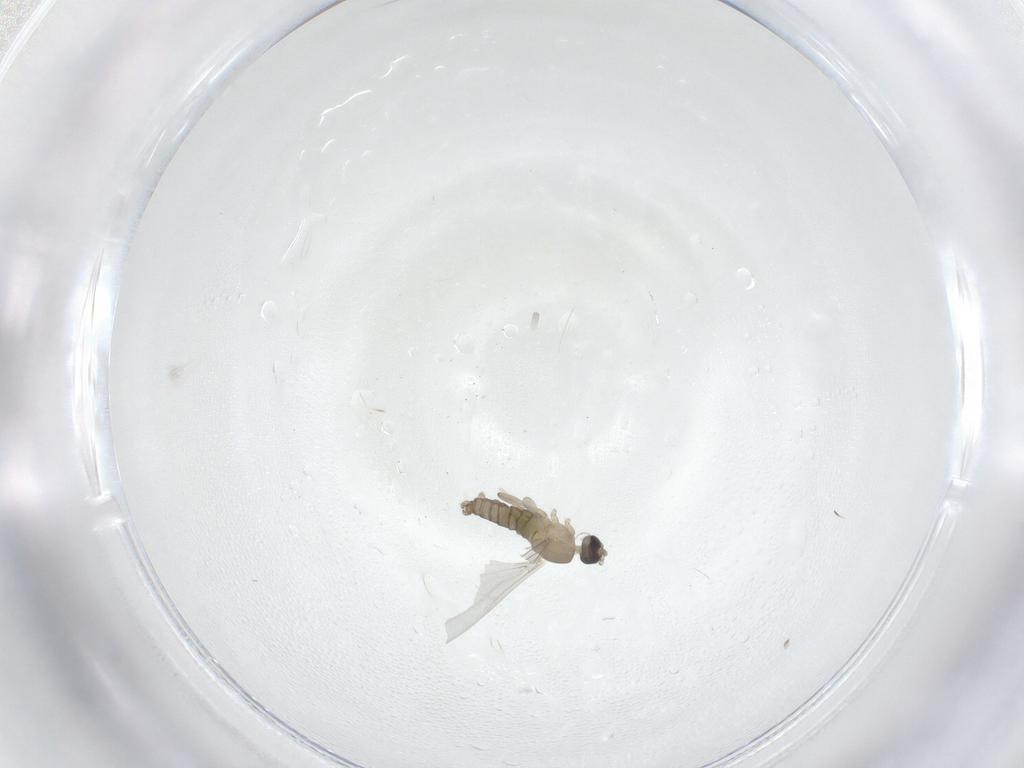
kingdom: Animalia
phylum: Arthropoda
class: Insecta
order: Diptera
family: Cecidomyiidae
